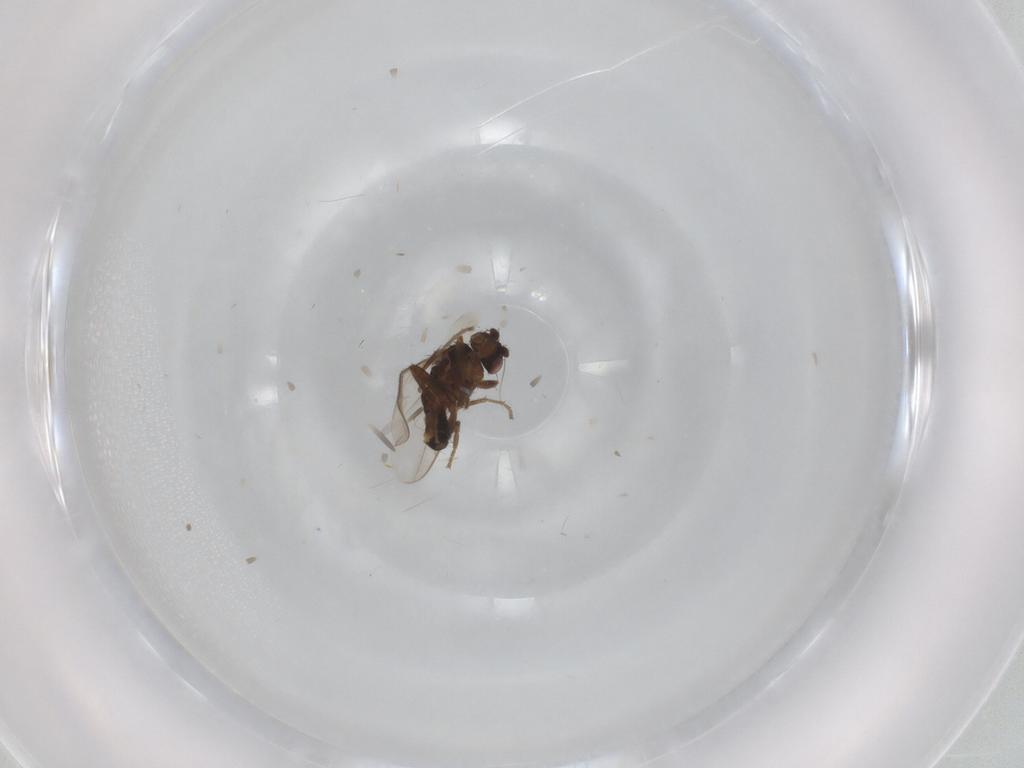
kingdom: Animalia
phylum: Arthropoda
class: Insecta
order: Diptera
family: Sphaeroceridae
